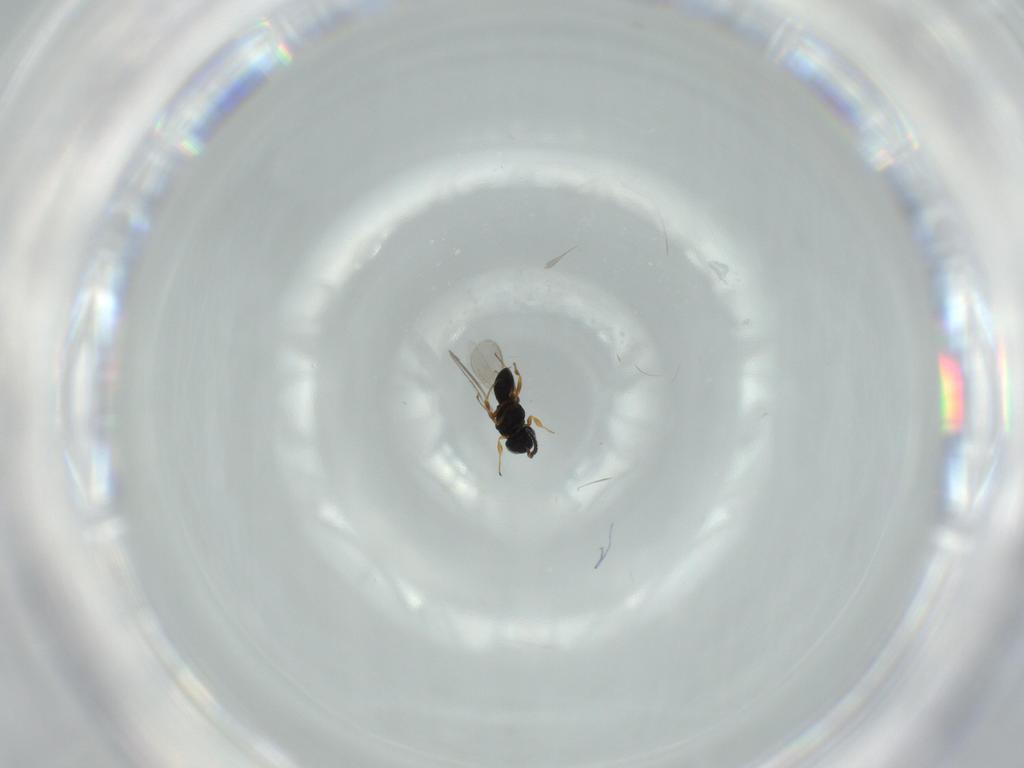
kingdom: Animalia
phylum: Arthropoda
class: Insecta
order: Hymenoptera
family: Scelionidae
